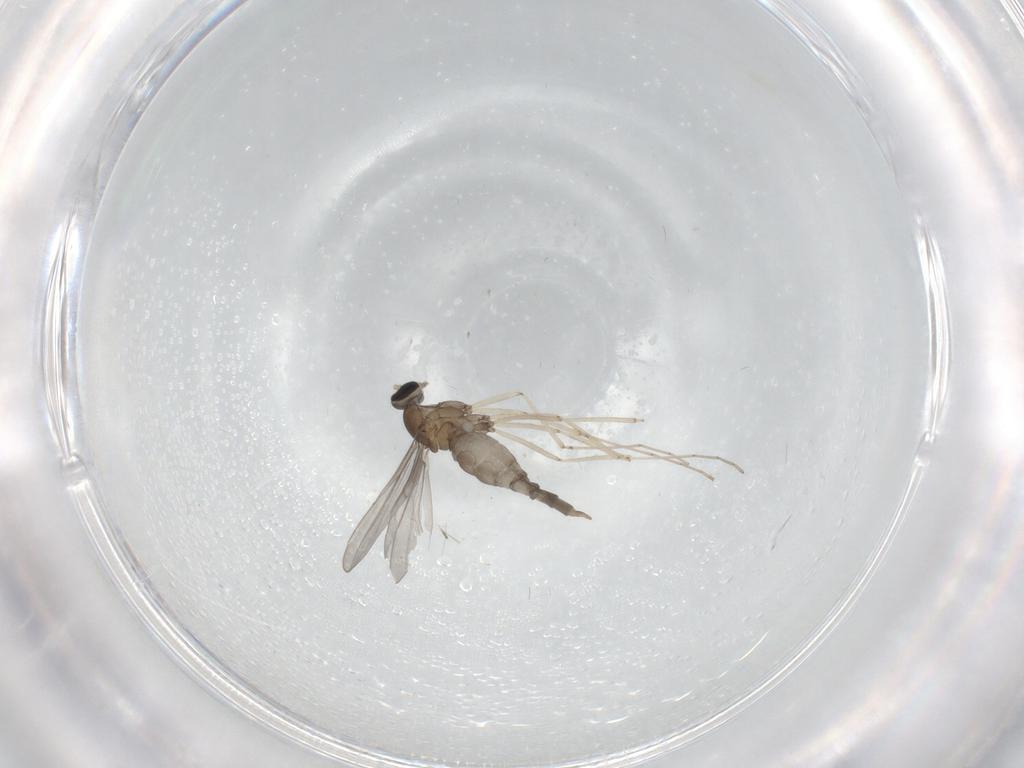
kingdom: Animalia
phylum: Arthropoda
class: Insecta
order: Diptera
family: Cecidomyiidae
